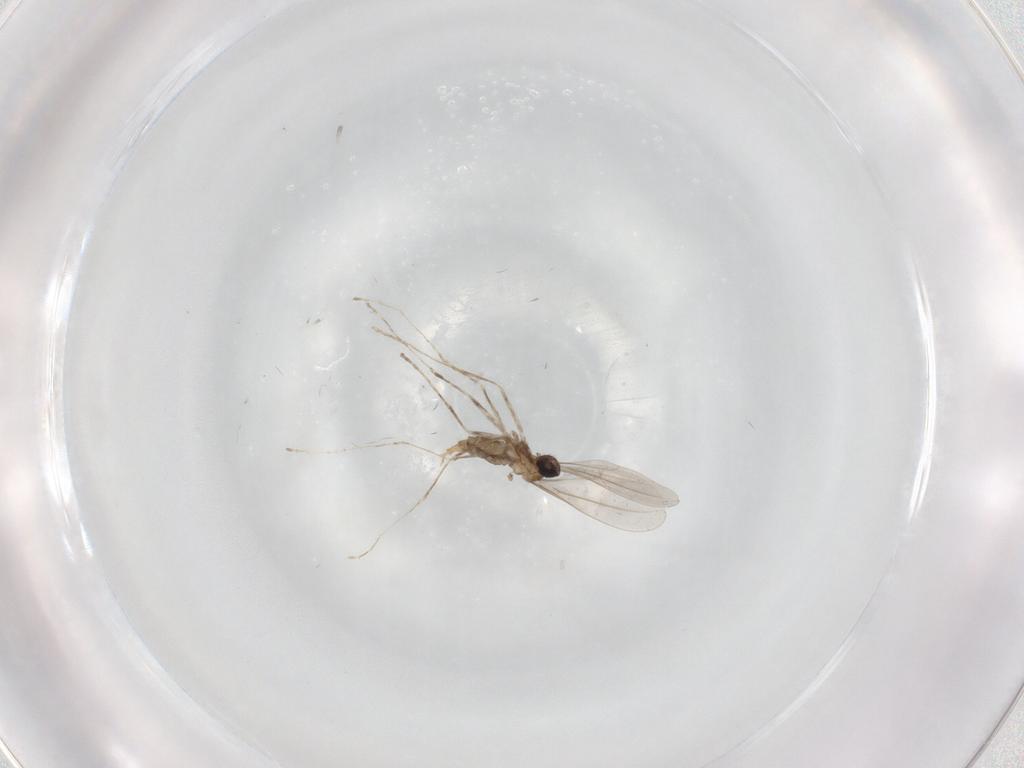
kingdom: Animalia
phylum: Arthropoda
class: Insecta
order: Diptera
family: Cecidomyiidae
